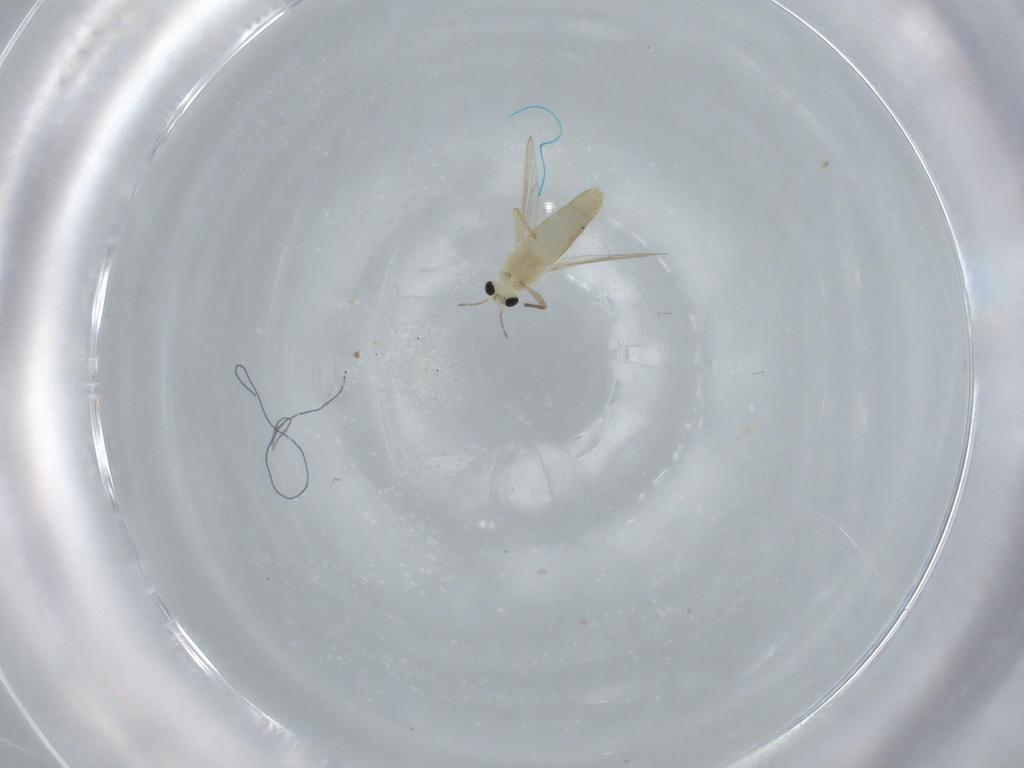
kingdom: Animalia
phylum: Arthropoda
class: Insecta
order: Diptera
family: Chironomidae
